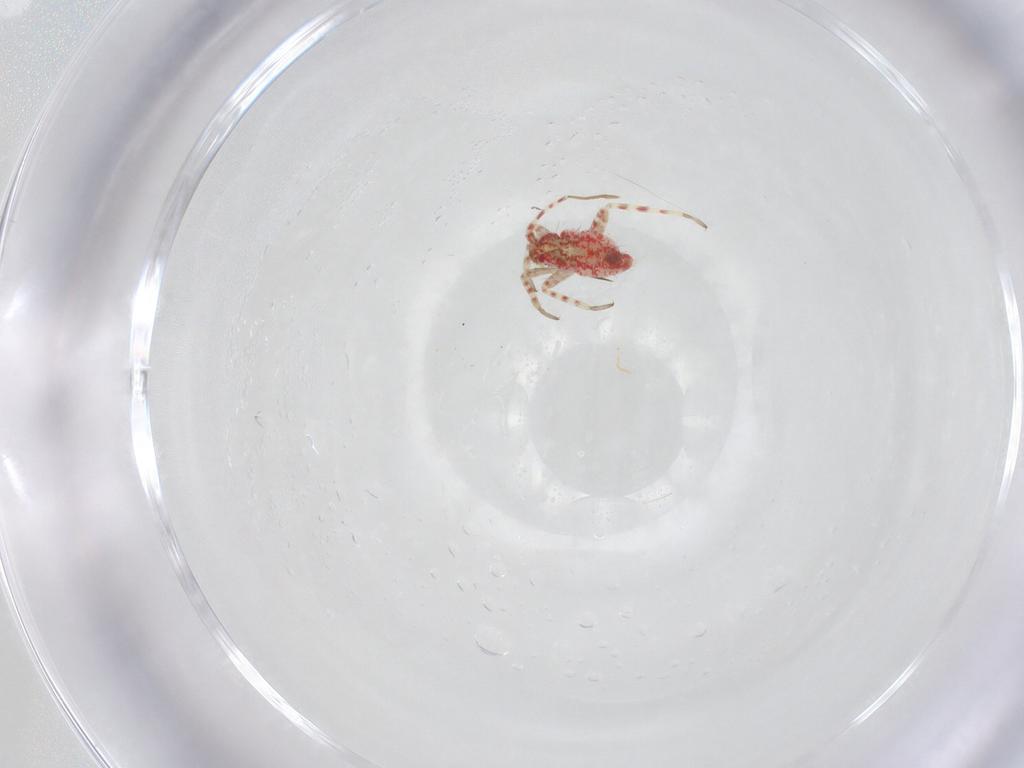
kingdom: Animalia
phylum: Arthropoda
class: Insecta
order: Hemiptera
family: Miridae
